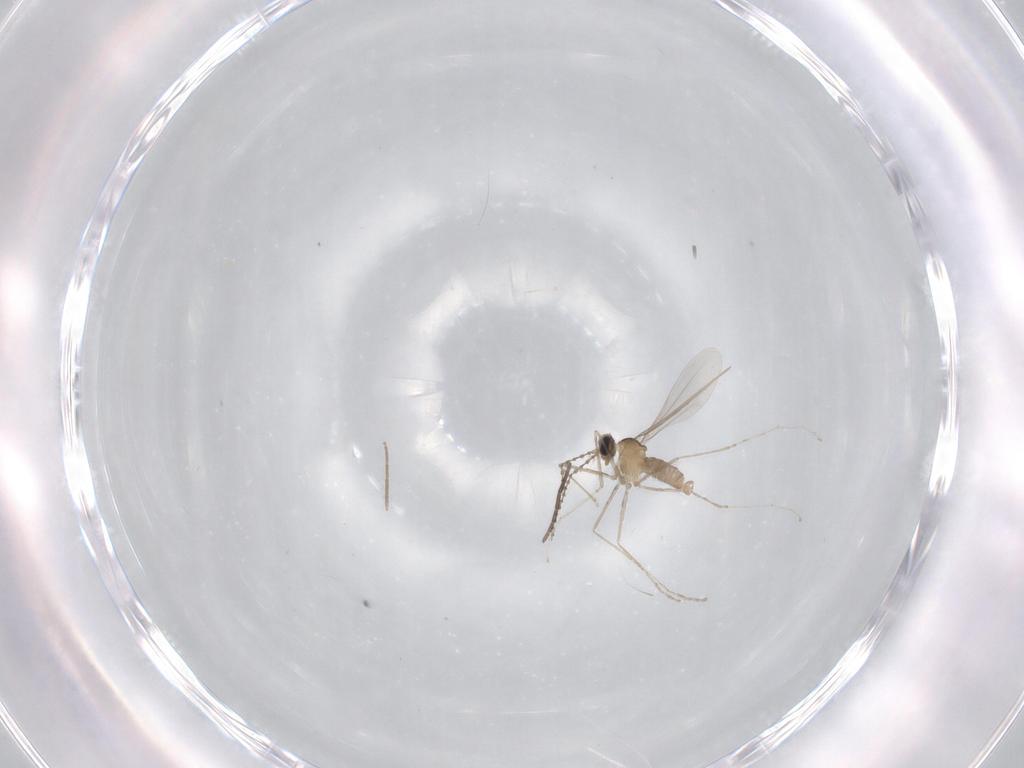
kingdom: Animalia
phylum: Arthropoda
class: Insecta
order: Diptera
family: Cecidomyiidae
